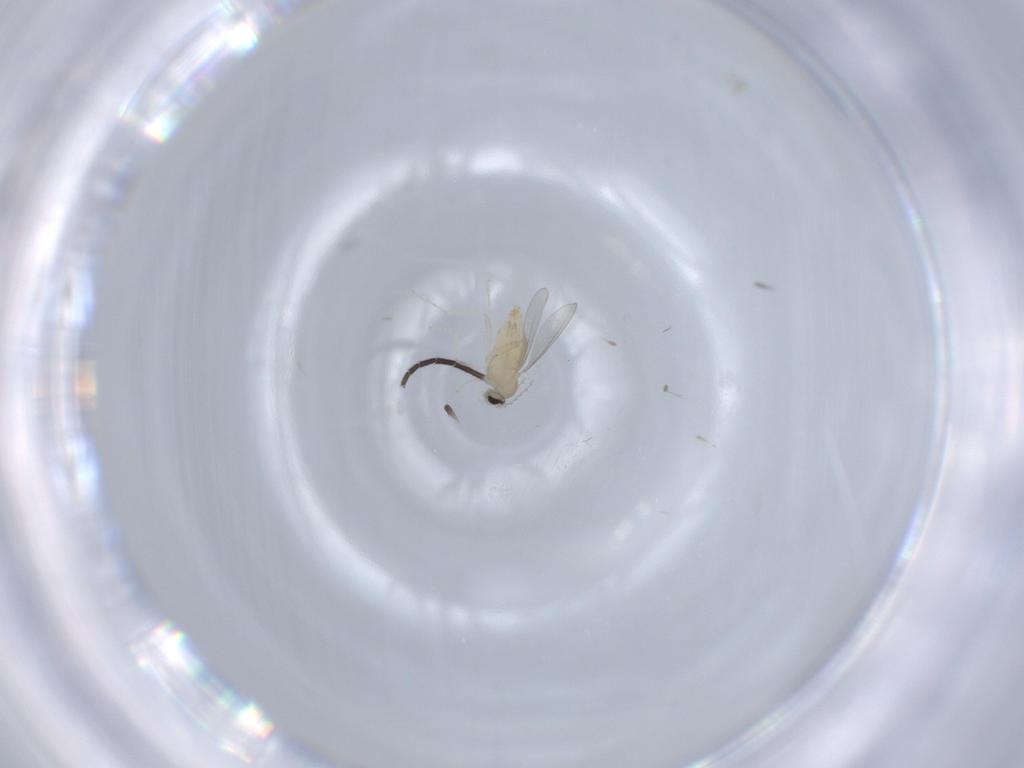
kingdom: Animalia
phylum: Arthropoda
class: Insecta
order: Diptera
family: Cecidomyiidae
